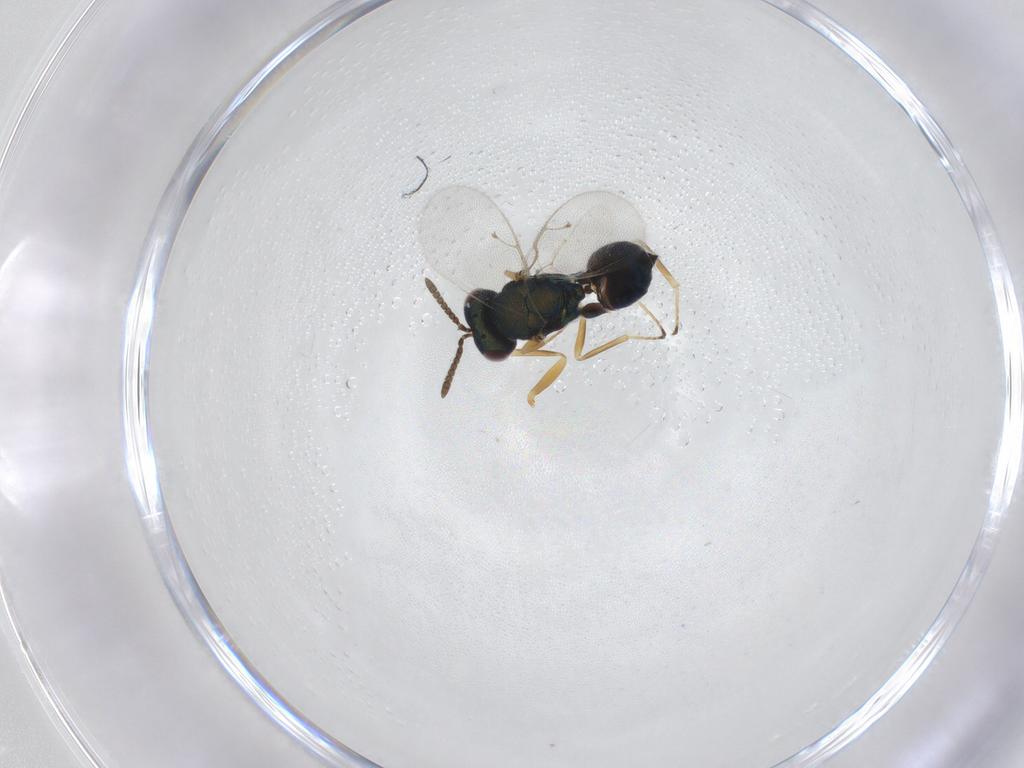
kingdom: Animalia
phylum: Arthropoda
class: Insecta
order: Hymenoptera
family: Pteromalidae
